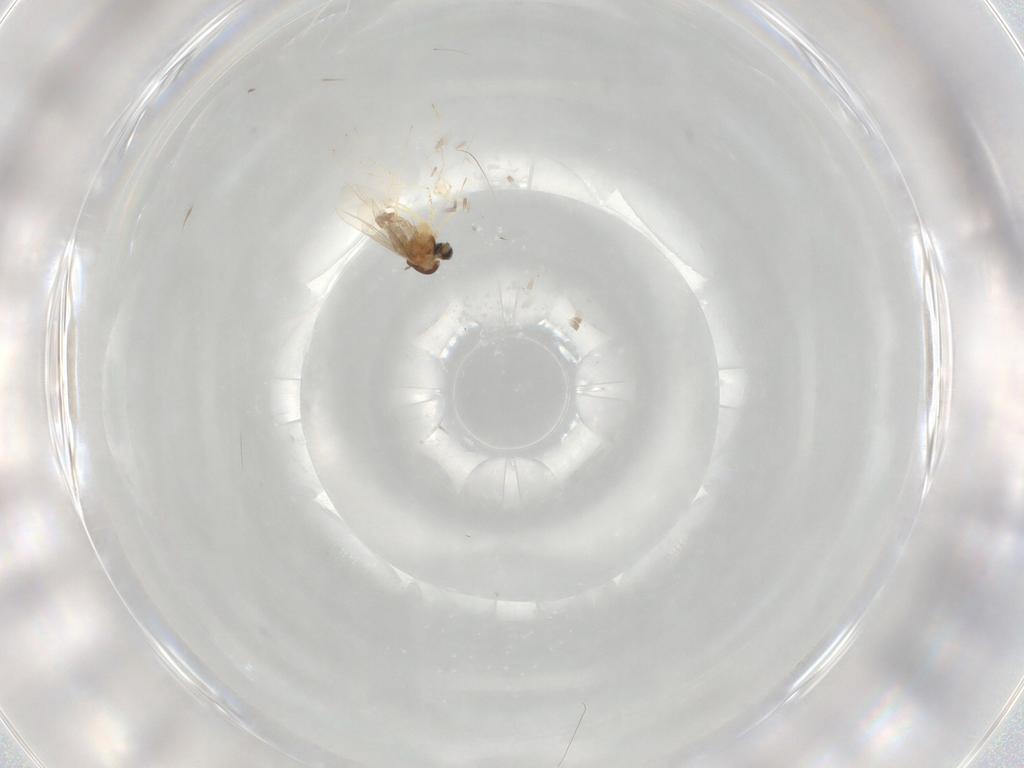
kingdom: Animalia
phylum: Arthropoda
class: Insecta
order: Diptera
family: Cecidomyiidae
